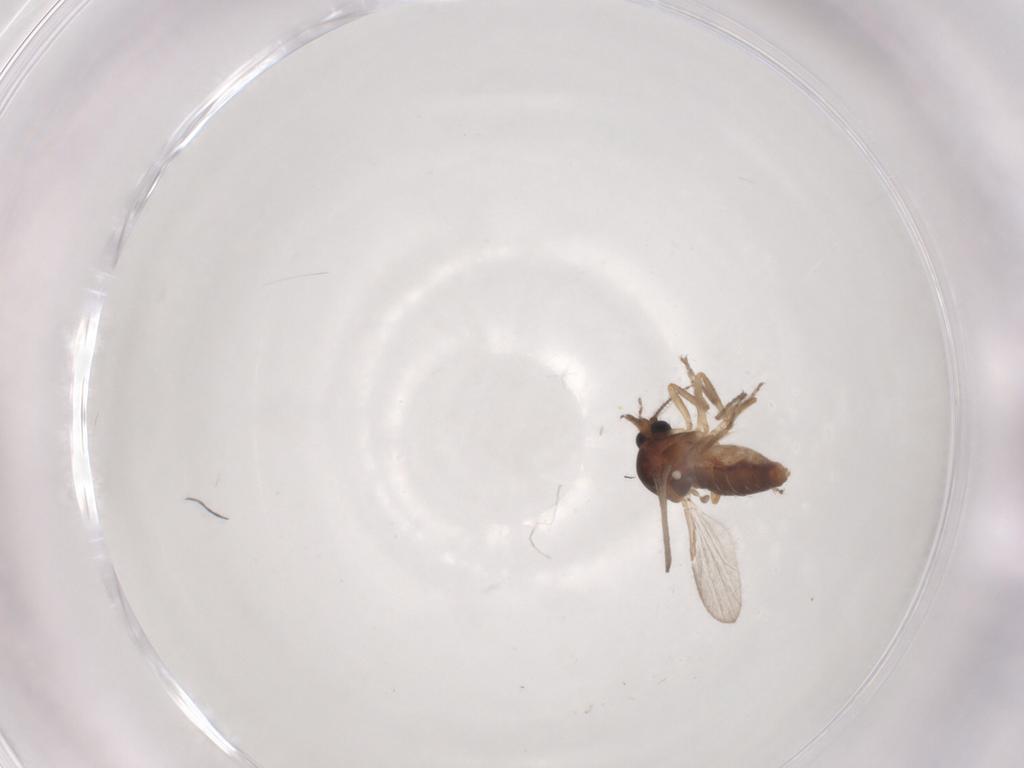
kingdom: Animalia
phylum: Arthropoda
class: Insecta
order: Diptera
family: Ceratopogonidae
